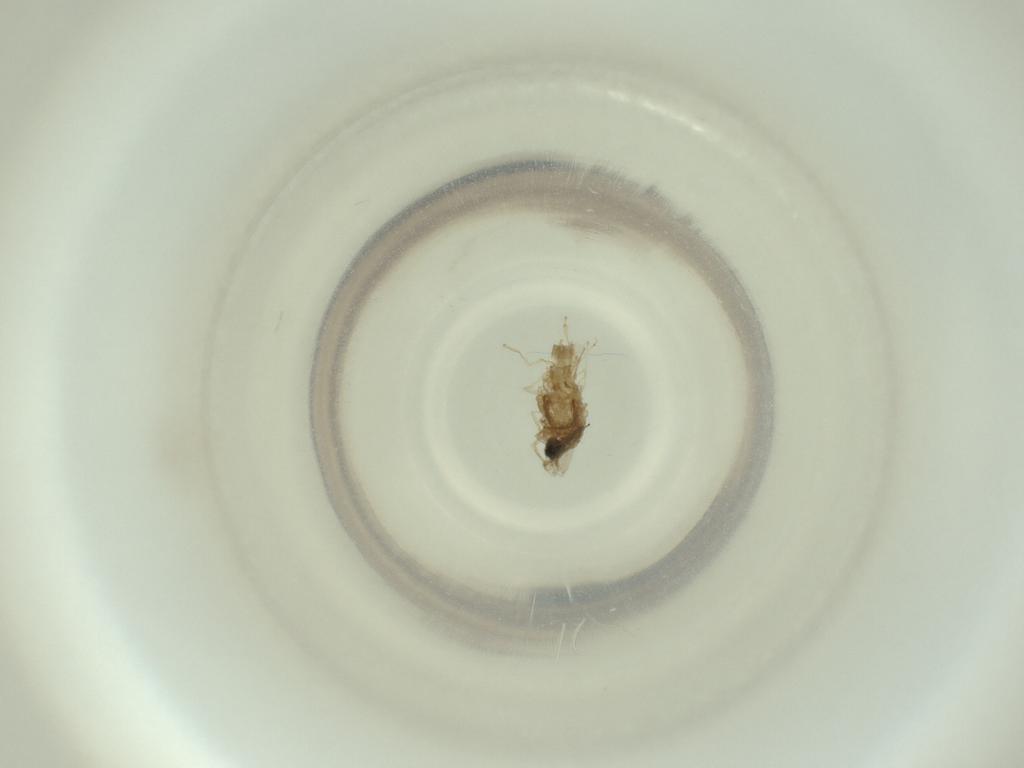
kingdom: Animalia
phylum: Arthropoda
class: Insecta
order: Diptera
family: Cecidomyiidae
